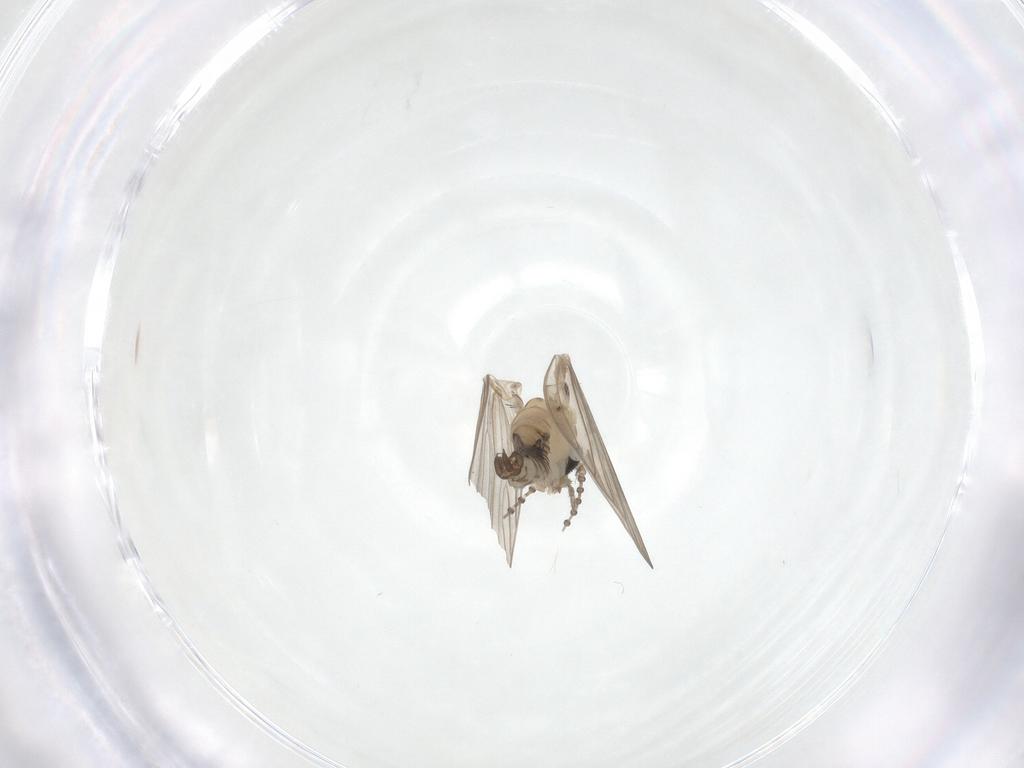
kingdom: Animalia
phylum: Arthropoda
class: Insecta
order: Diptera
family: Psychodidae
